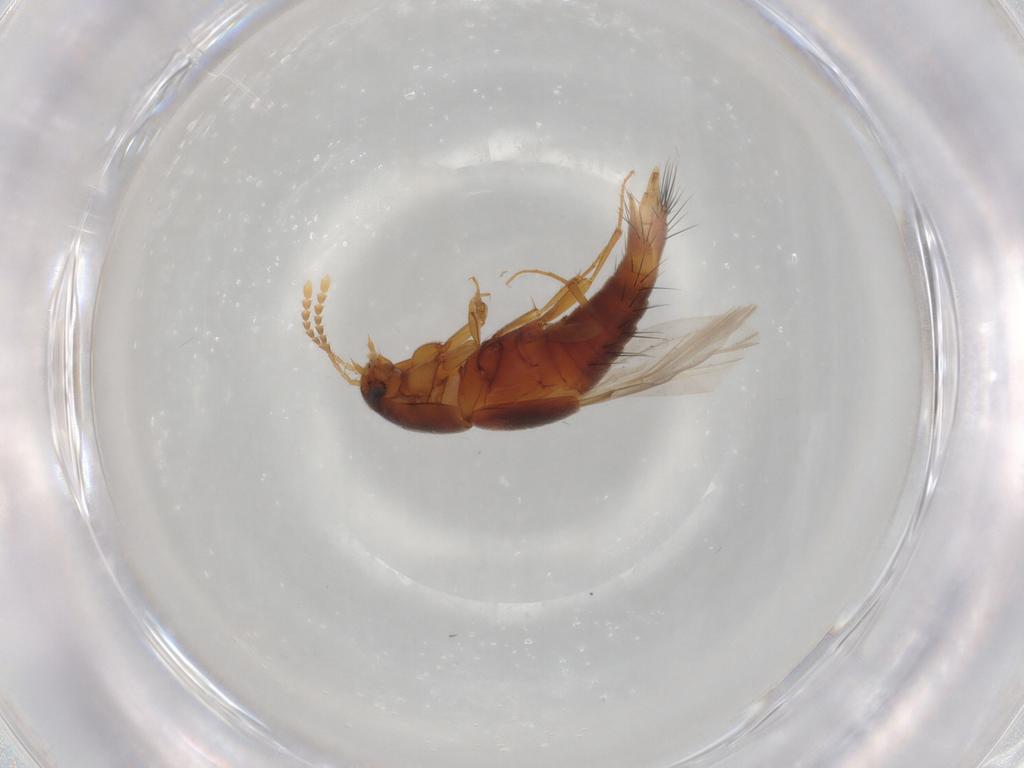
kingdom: Animalia
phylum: Arthropoda
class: Insecta
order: Coleoptera
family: Staphylinidae
